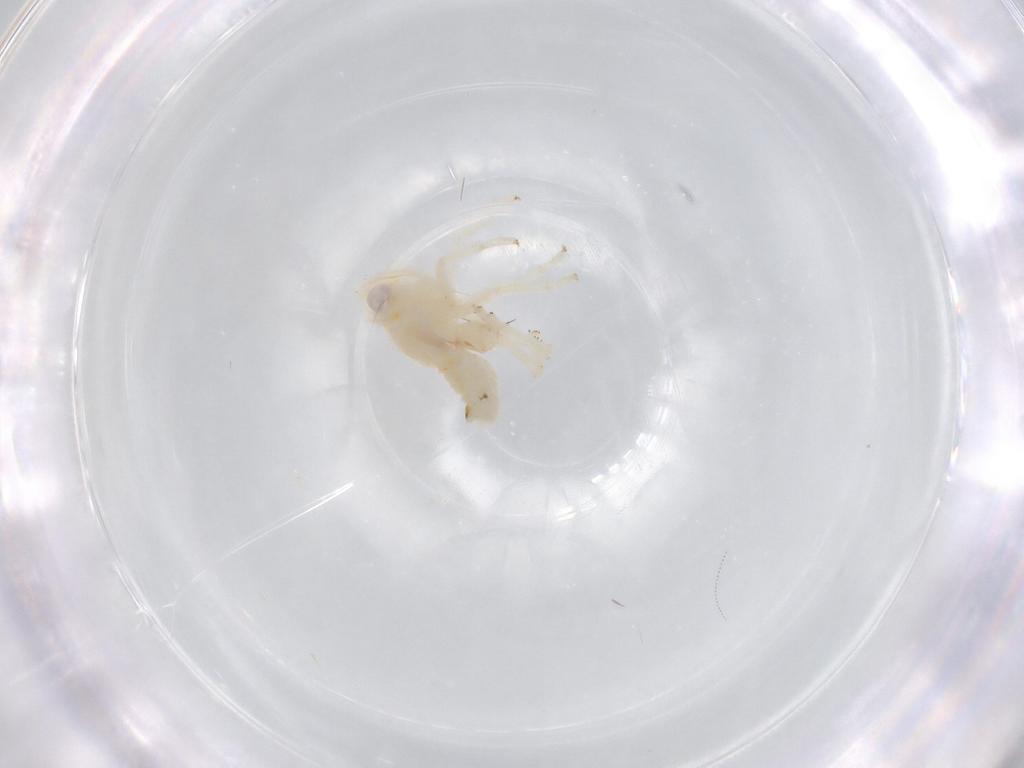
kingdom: Animalia
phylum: Arthropoda
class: Insecta
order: Hemiptera
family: Nogodinidae
